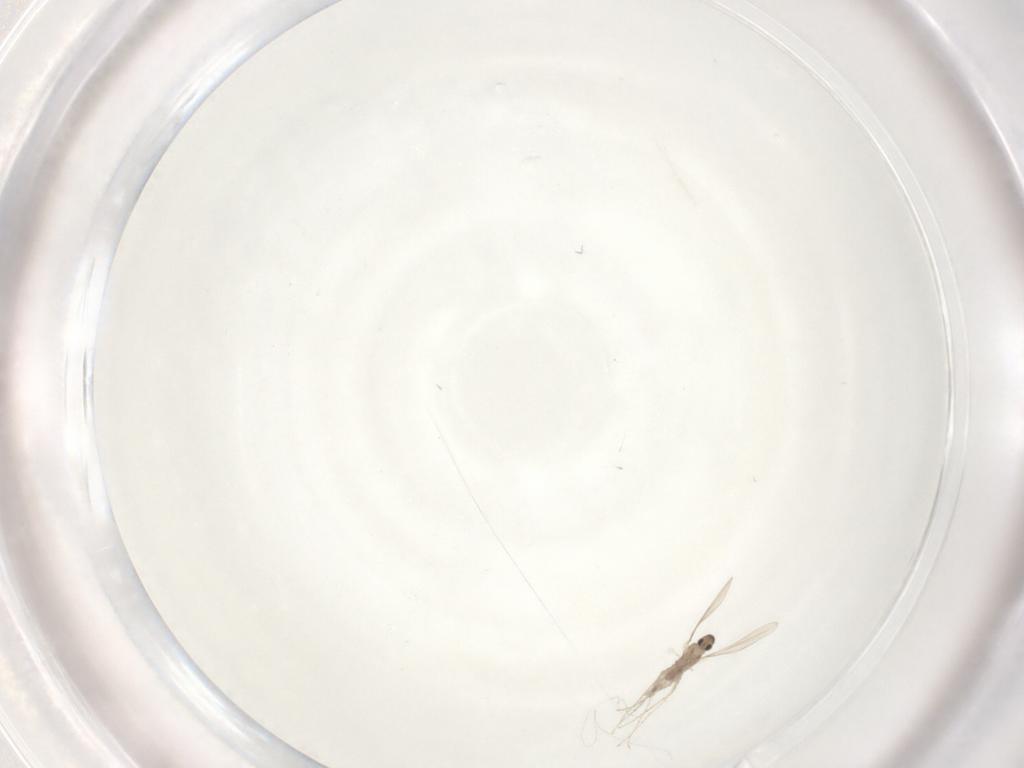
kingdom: Animalia
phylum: Arthropoda
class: Insecta
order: Diptera
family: Cecidomyiidae
